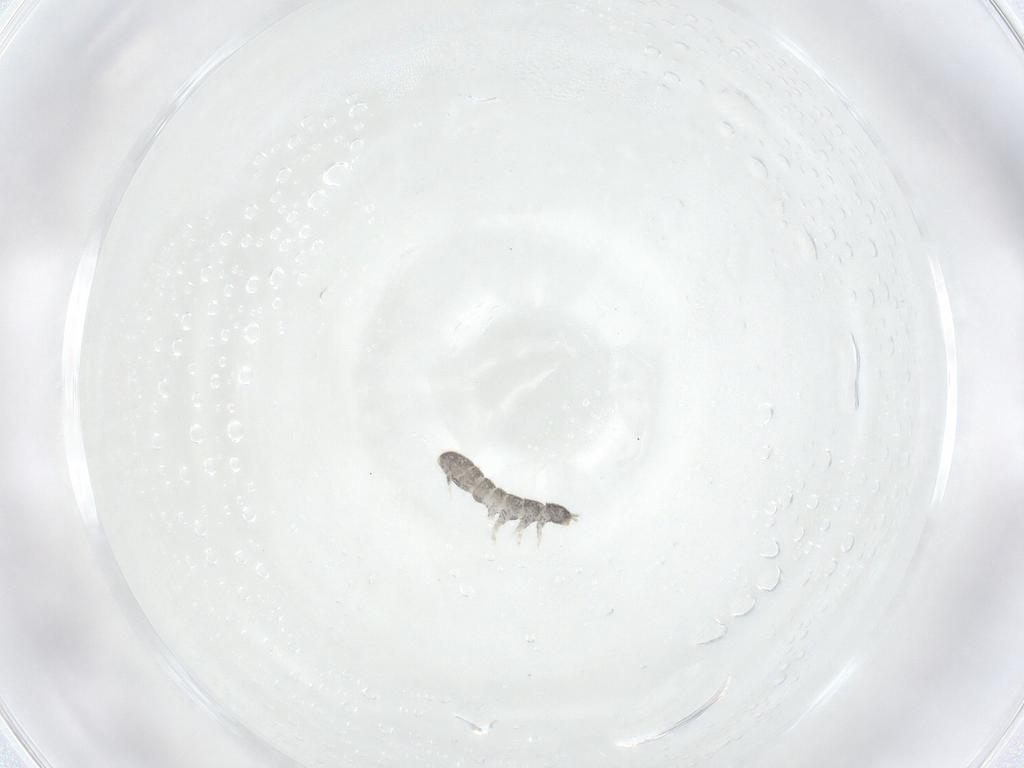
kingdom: Animalia
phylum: Arthropoda
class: Collembola
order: Entomobryomorpha
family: Isotomidae
